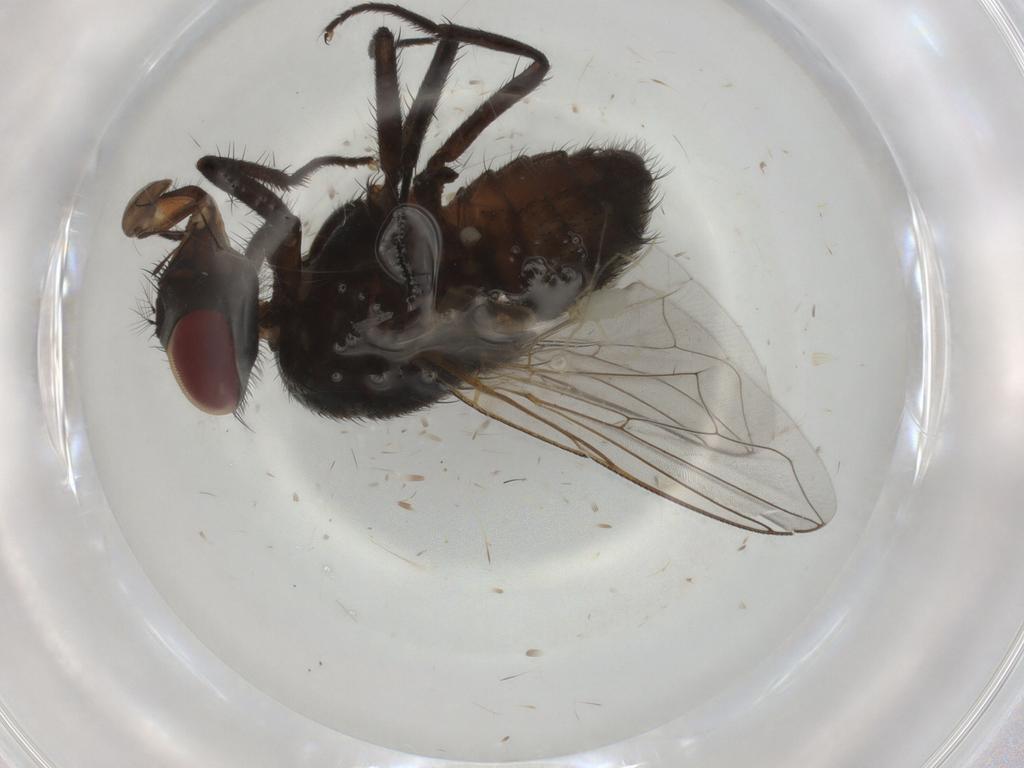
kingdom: Animalia
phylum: Arthropoda
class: Insecta
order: Diptera
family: Muscidae
